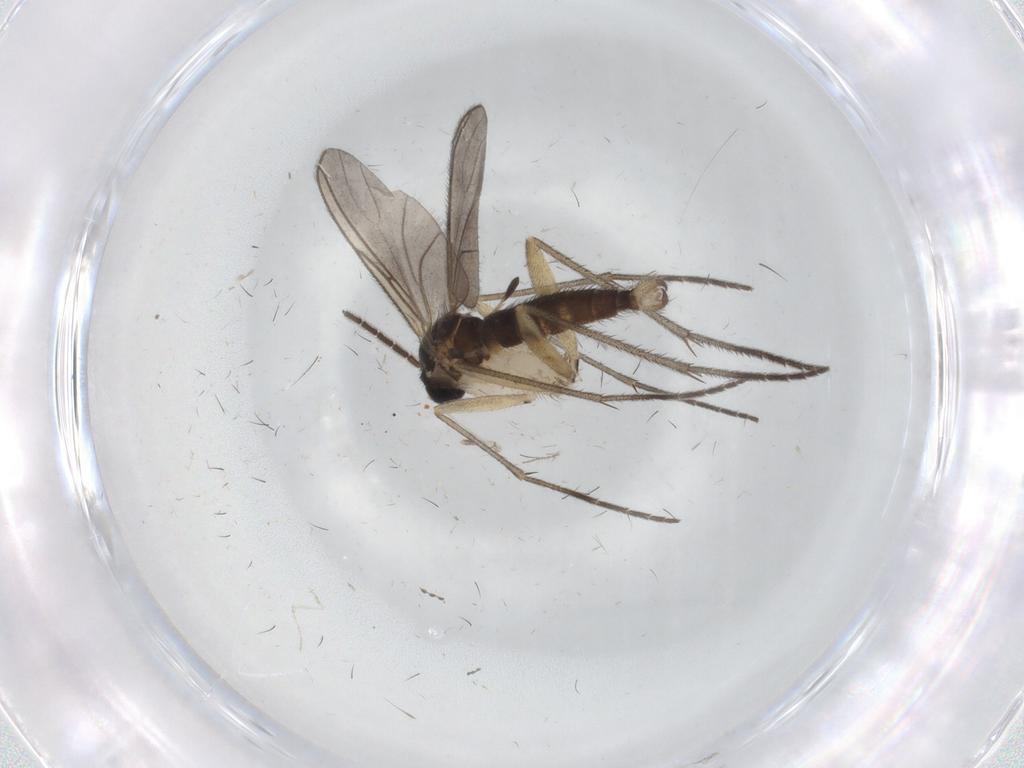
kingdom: Animalia
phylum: Arthropoda
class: Insecta
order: Diptera
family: Sciaridae
